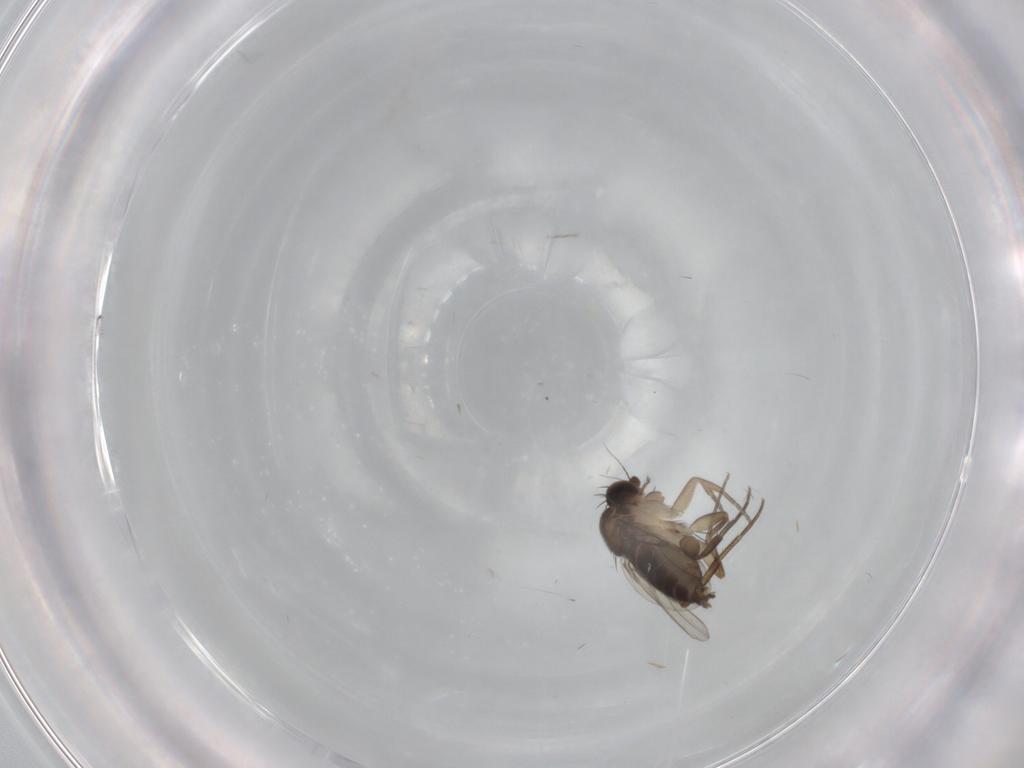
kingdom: Animalia
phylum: Arthropoda
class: Insecta
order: Diptera
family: Phoridae
